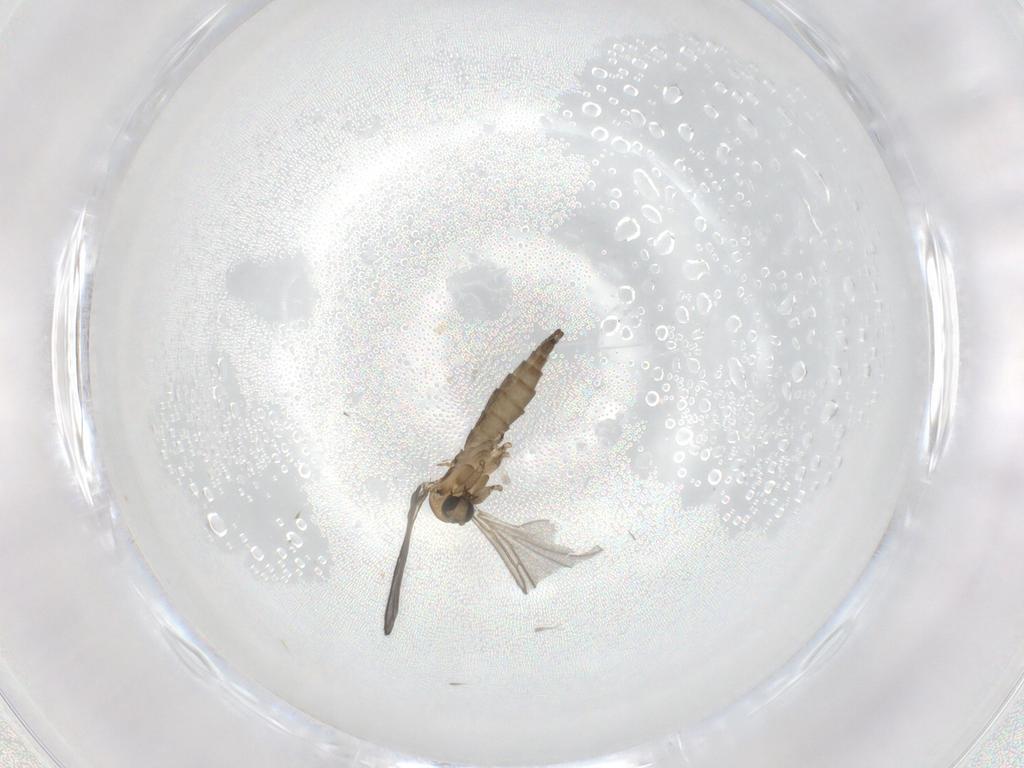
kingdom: Animalia
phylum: Arthropoda
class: Insecta
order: Diptera
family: Sciaridae
